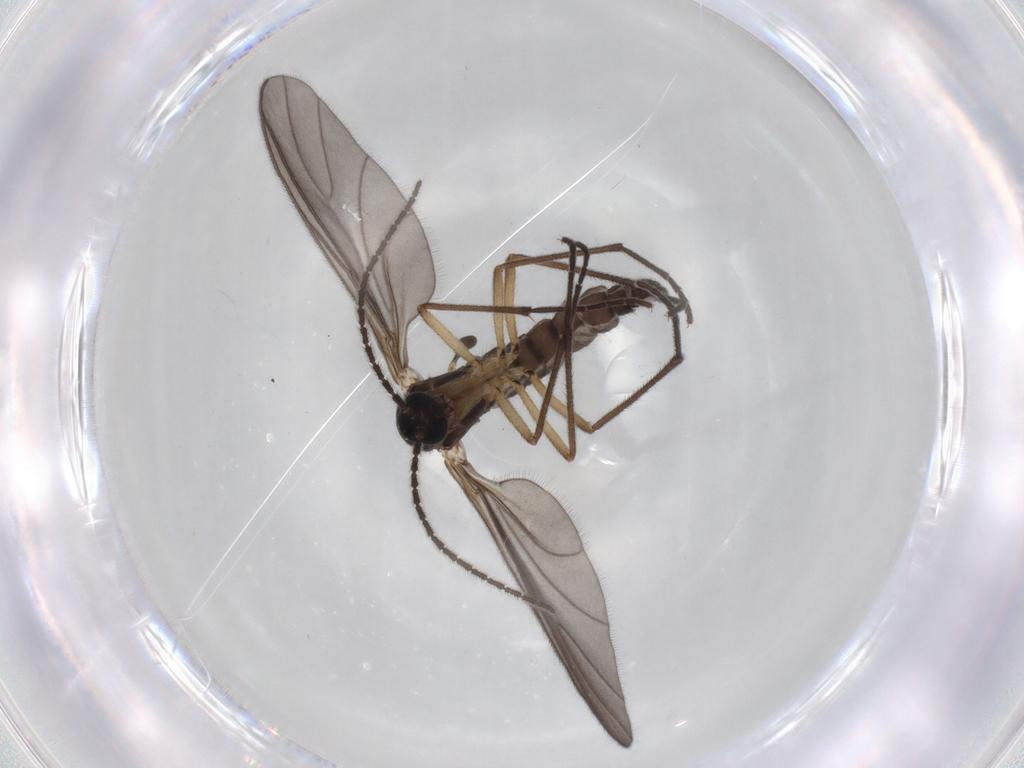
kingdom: Animalia
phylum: Arthropoda
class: Insecta
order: Diptera
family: Sciaridae
